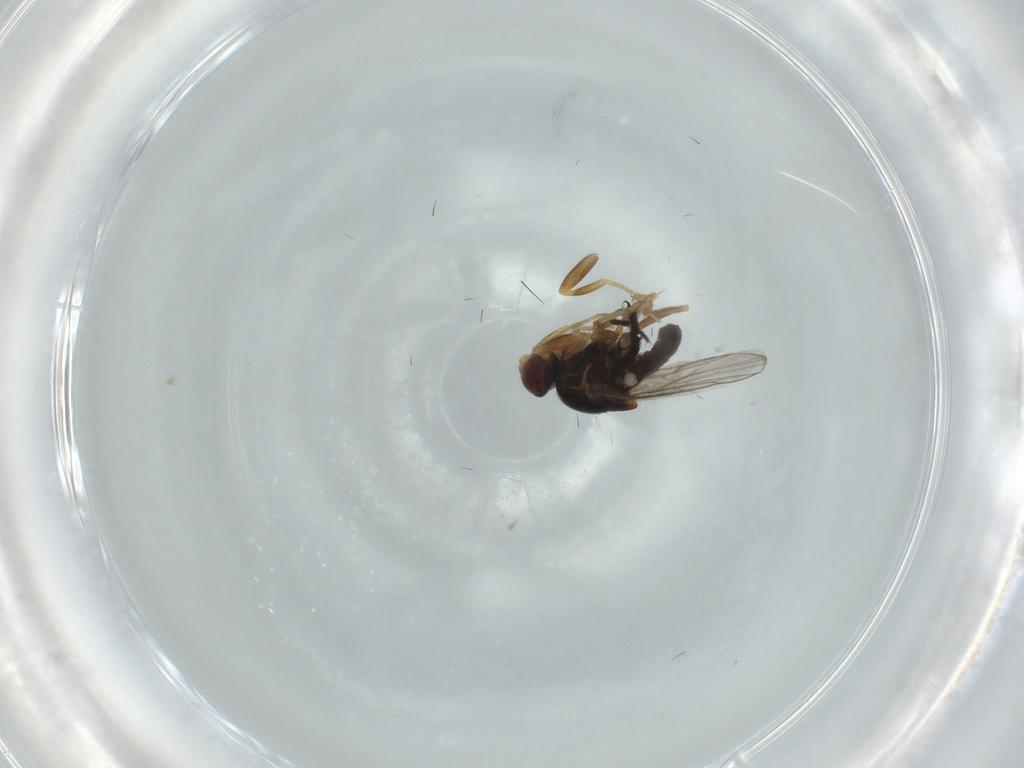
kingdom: Animalia
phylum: Arthropoda
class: Insecta
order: Diptera
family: Chloropidae
